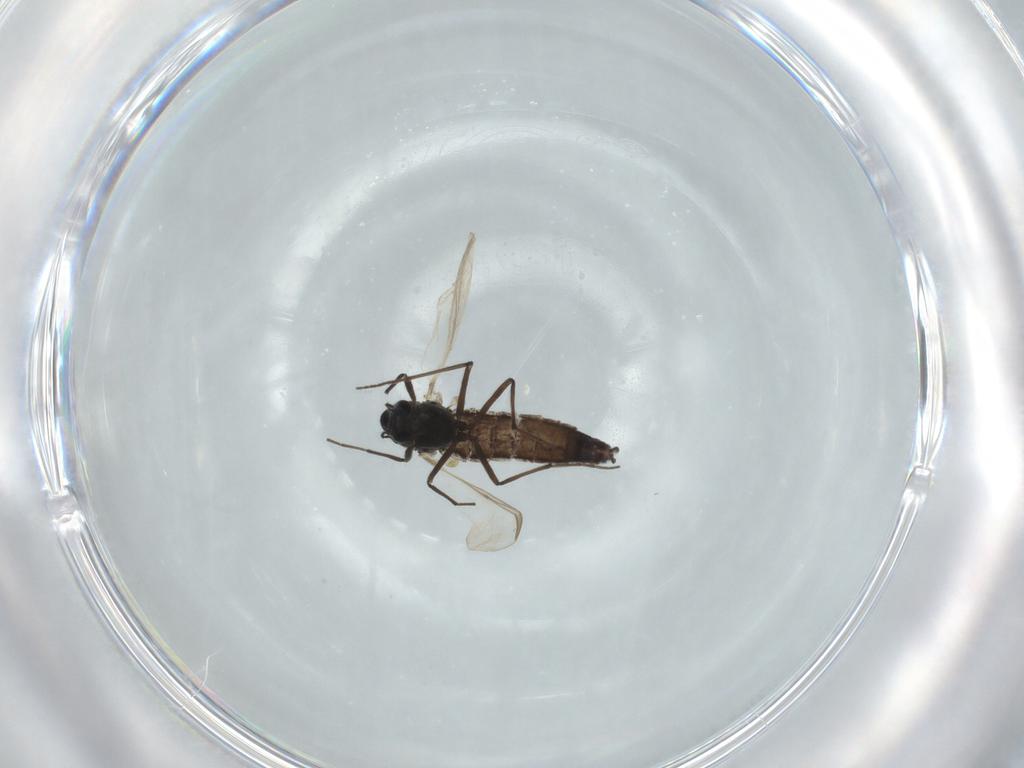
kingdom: Animalia
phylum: Arthropoda
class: Insecta
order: Diptera
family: Culicidae
